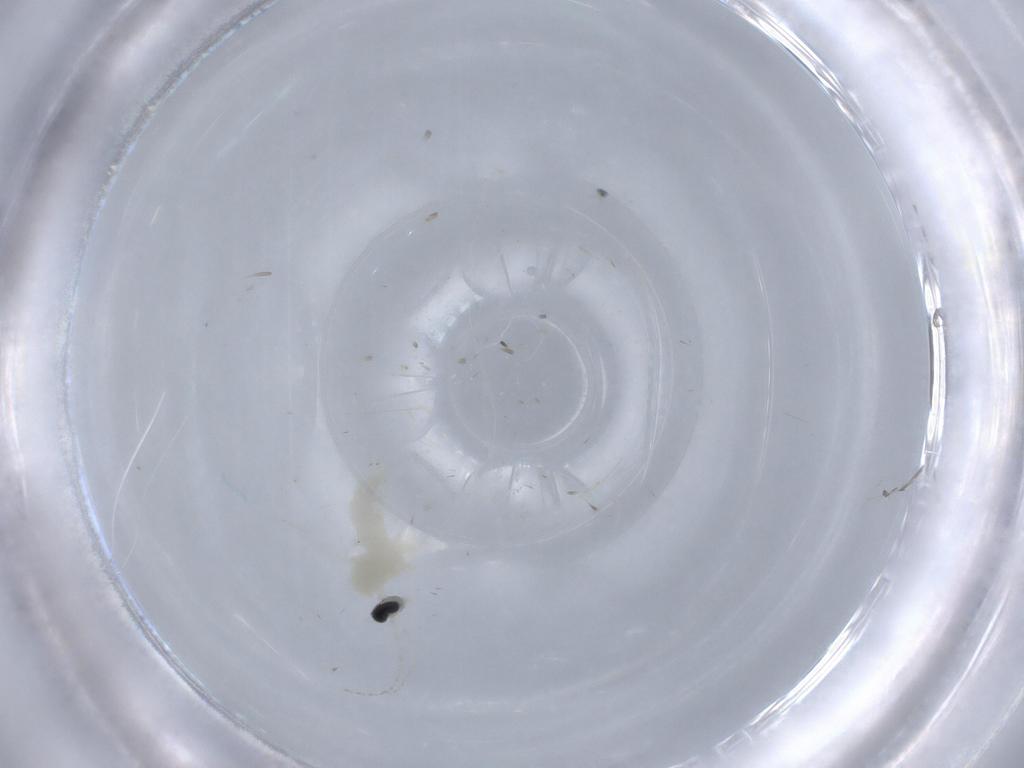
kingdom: Animalia
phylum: Arthropoda
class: Insecta
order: Diptera
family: Cecidomyiidae
